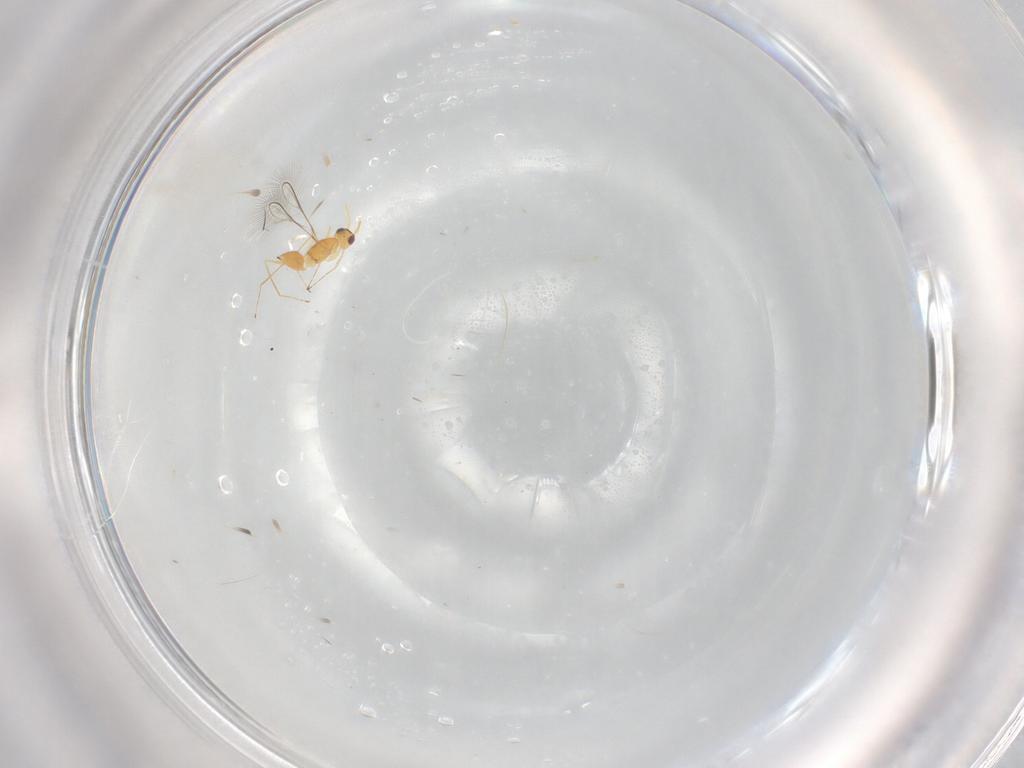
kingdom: Animalia
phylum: Arthropoda
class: Insecta
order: Hymenoptera
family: Mymaridae
